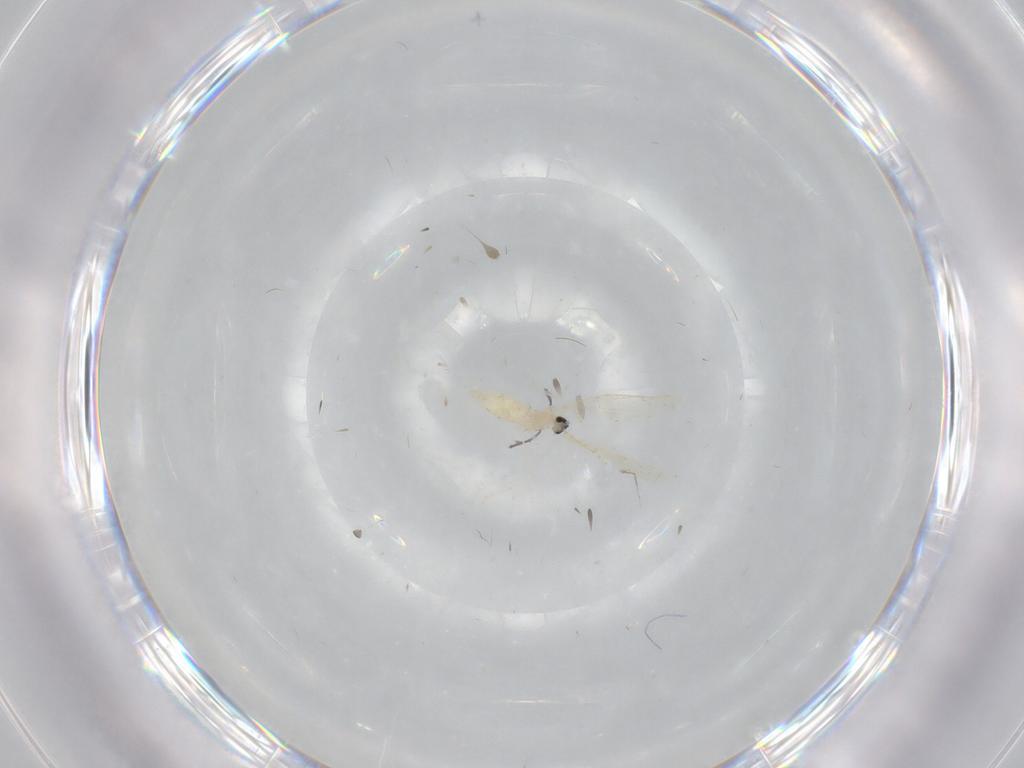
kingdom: Animalia
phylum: Arthropoda
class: Insecta
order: Diptera
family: Cecidomyiidae
